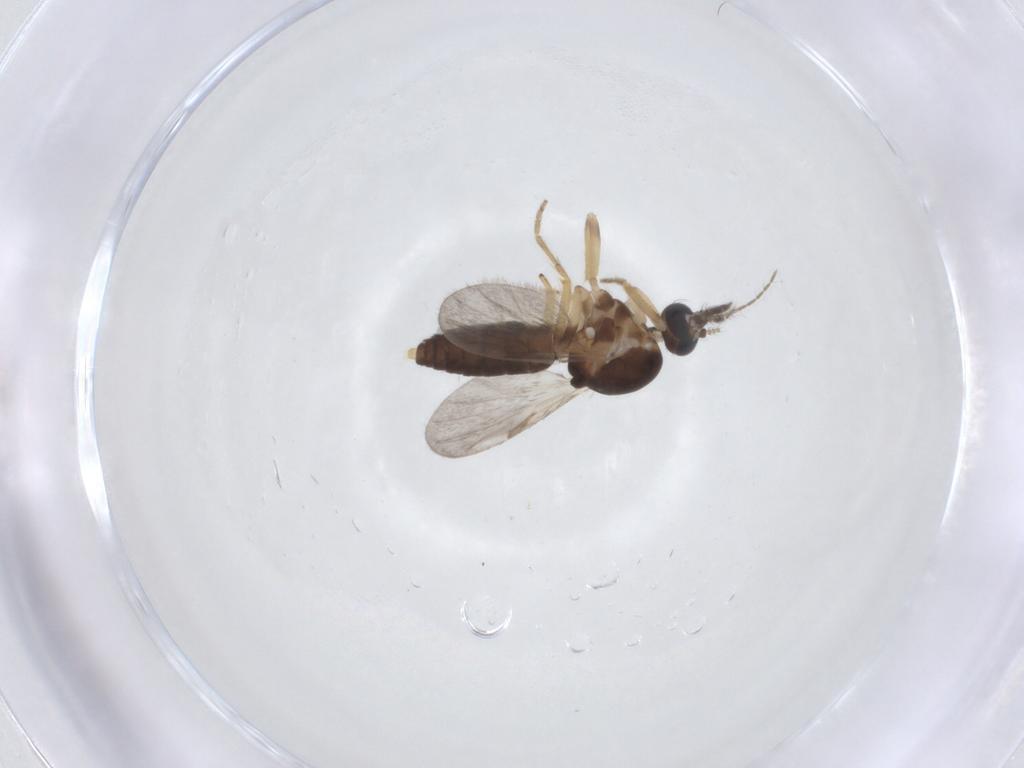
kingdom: Animalia
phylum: Arthropoda
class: Insecta
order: Diptera
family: Ceratopogonidae
